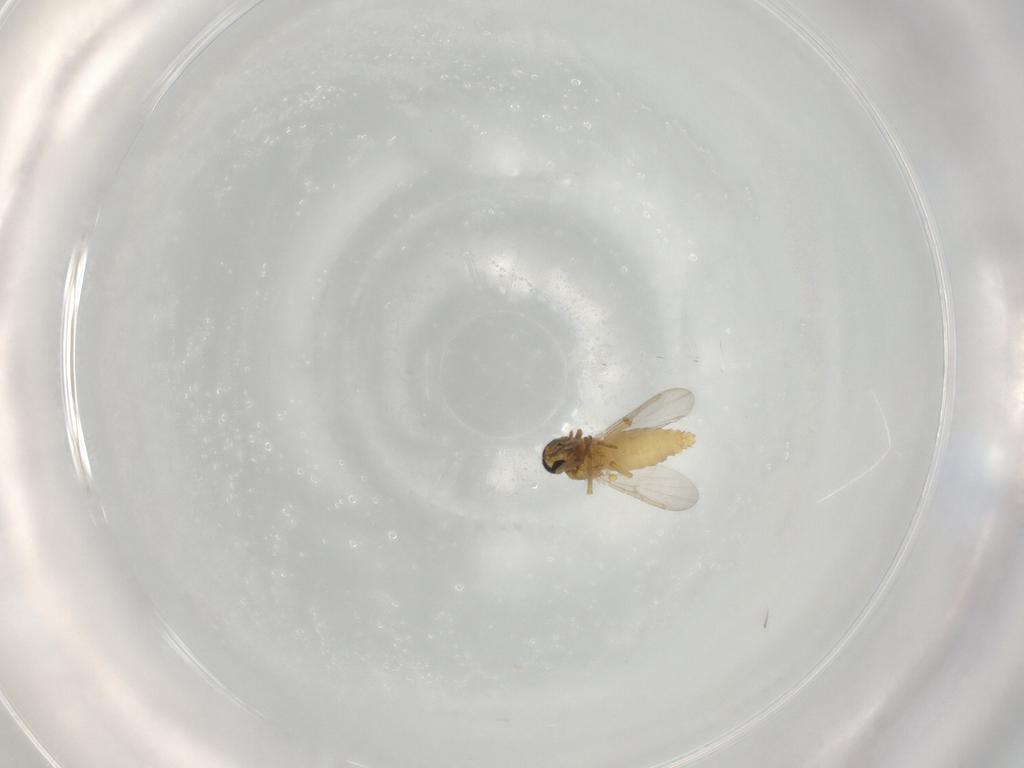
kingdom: Animalia
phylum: Arthropoda
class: Insecta
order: Diptera
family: Ceratopogonidae
